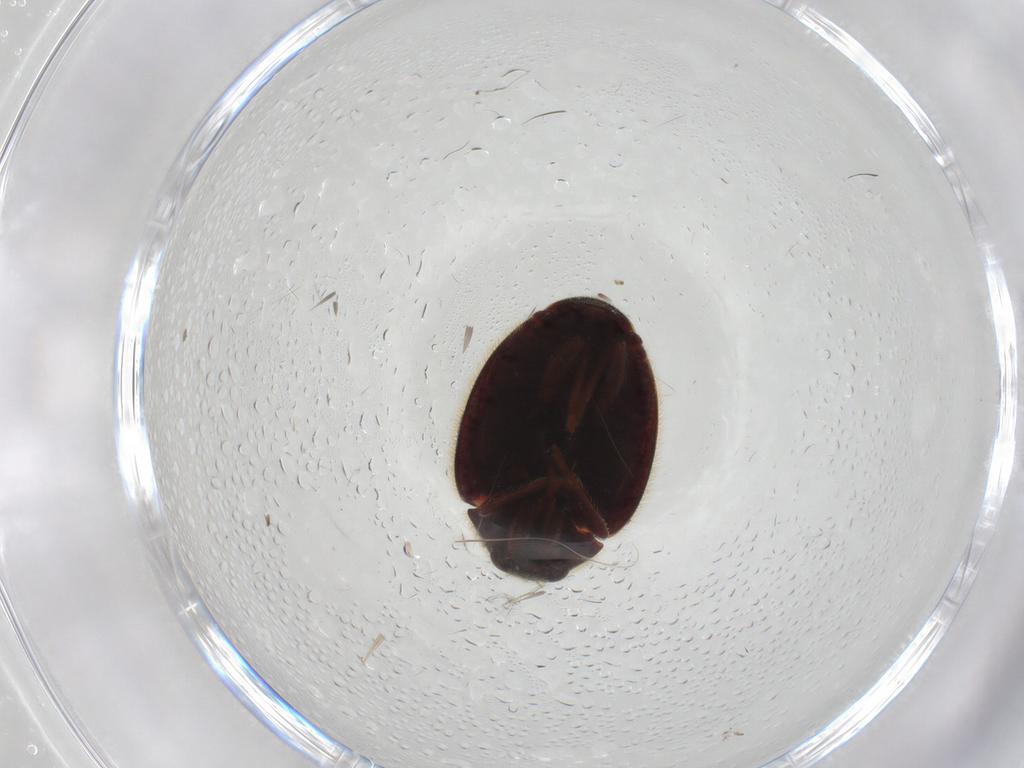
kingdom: Animalia
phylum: Arthropoda
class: Insecta
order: Coleoptera
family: Coccinellidae
